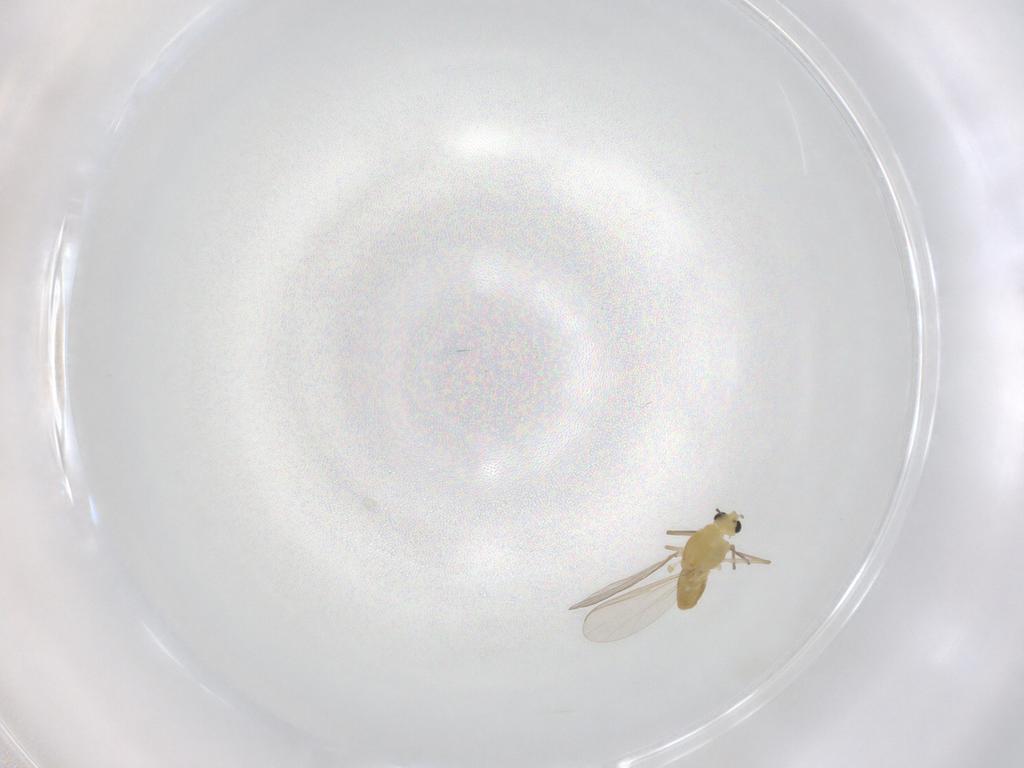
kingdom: Animalia
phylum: Arthropoda
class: Insecta
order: Diptera
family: Chironomidae
